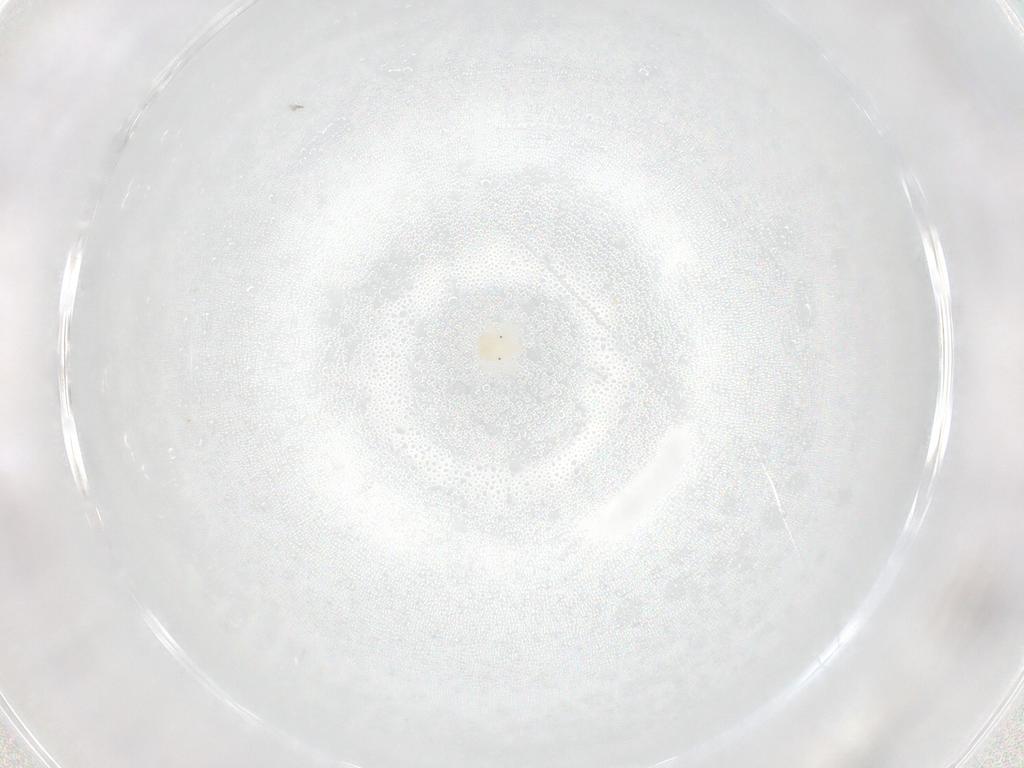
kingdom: Animalia
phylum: Arthropoda
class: Arachnida
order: Trombidiformes
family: Anystidae
